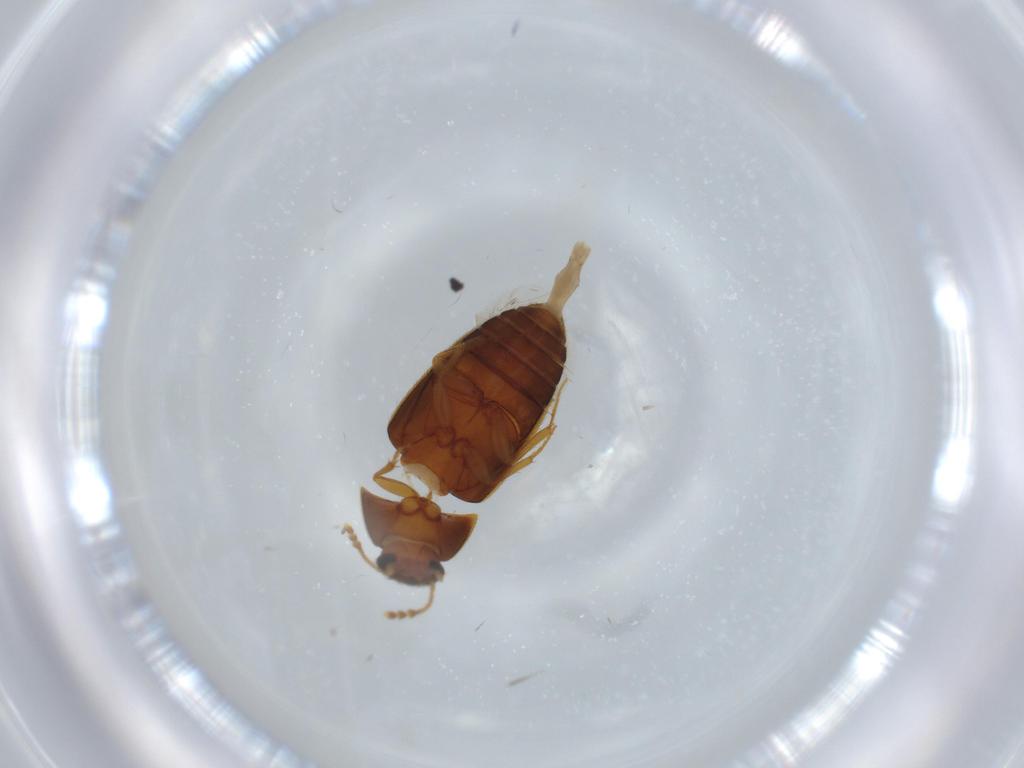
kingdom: Animalia
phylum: Arthropoda
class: Insecta
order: Coleoptera
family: Mycetophagidae
